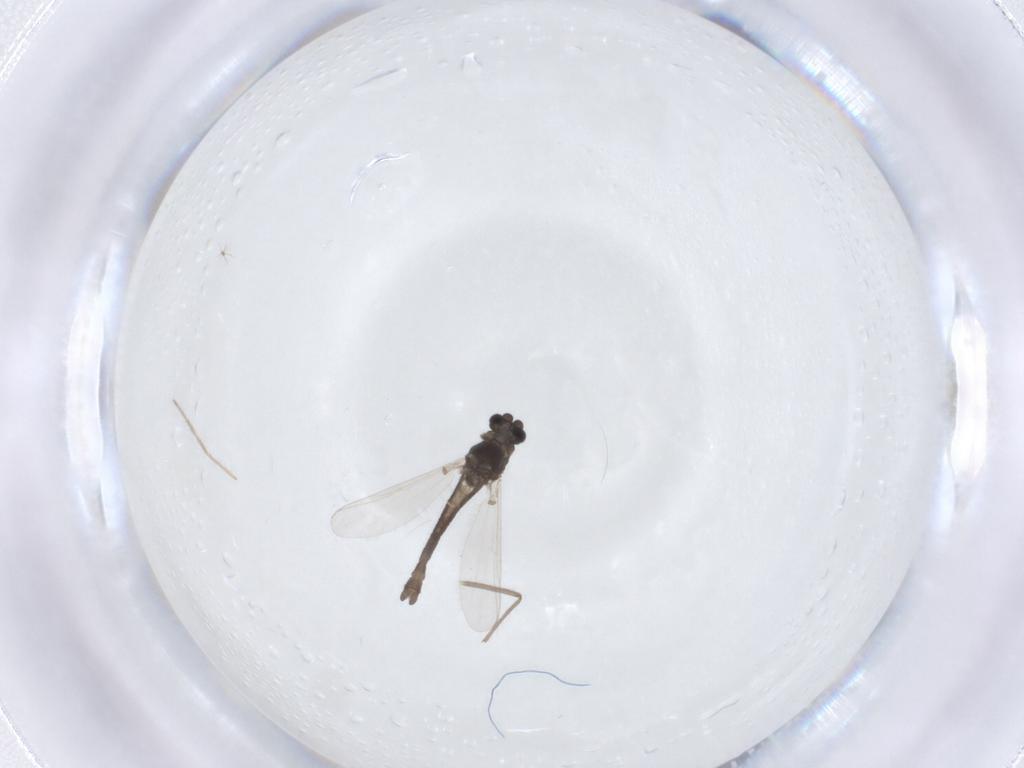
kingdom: Animalia
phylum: Arthropoda
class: Insecta
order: Diptera
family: Chironomidae
